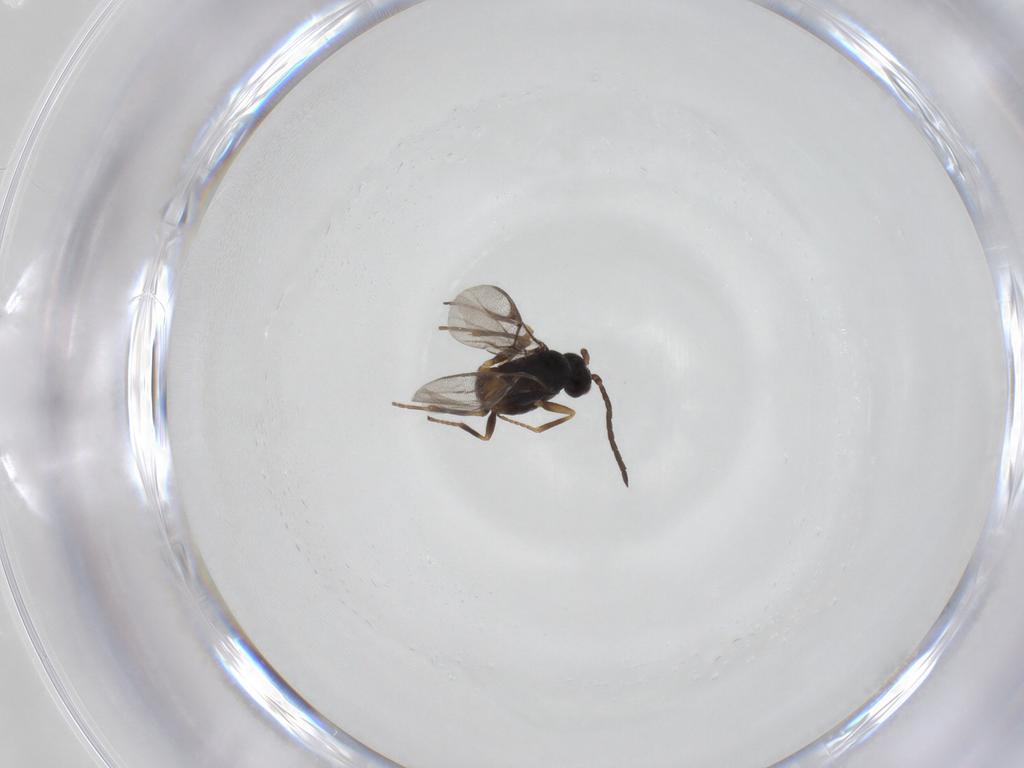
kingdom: Animalia
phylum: Arthropoda
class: Insecta
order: Hymenoptera
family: Braconidae
